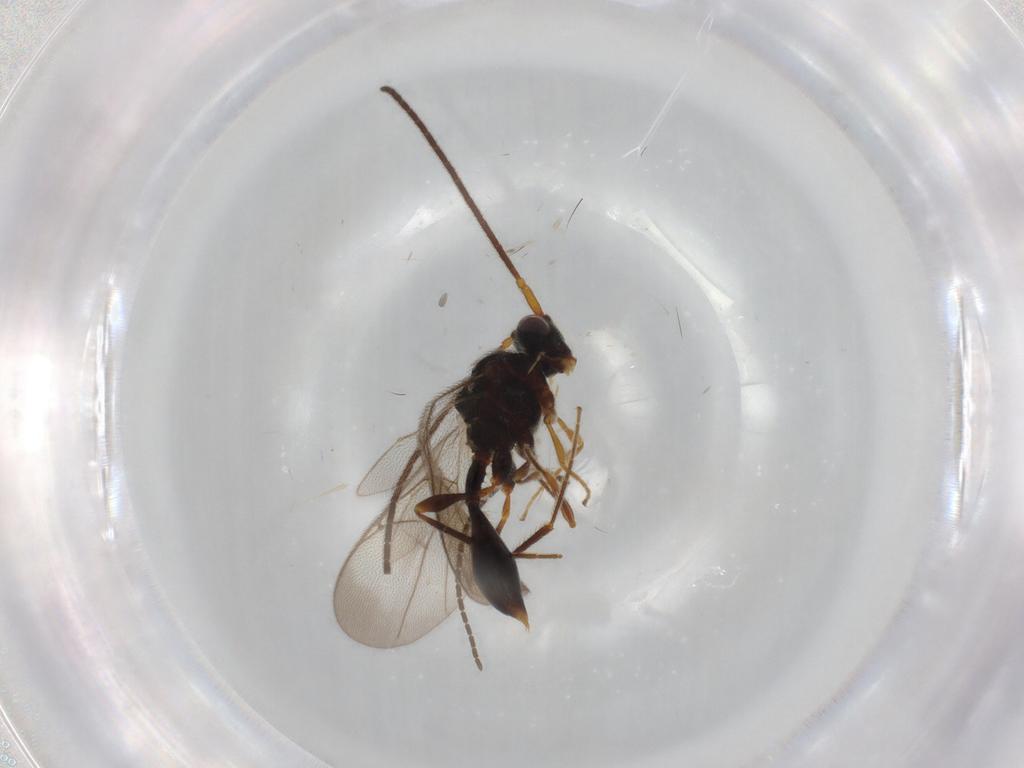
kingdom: Animalia
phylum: Arthropoda
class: Insecta
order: Hymenoptera
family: Diapriidae
